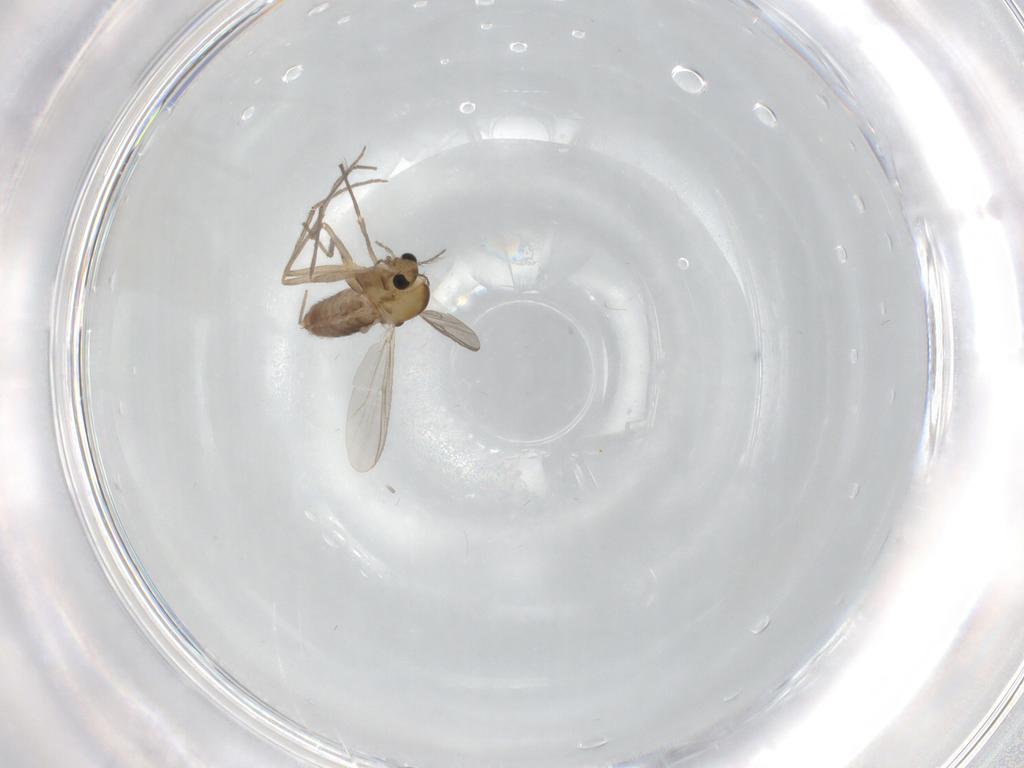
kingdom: Animalia
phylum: Arthropoda
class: Insecta
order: Diptera
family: Chironomidae
